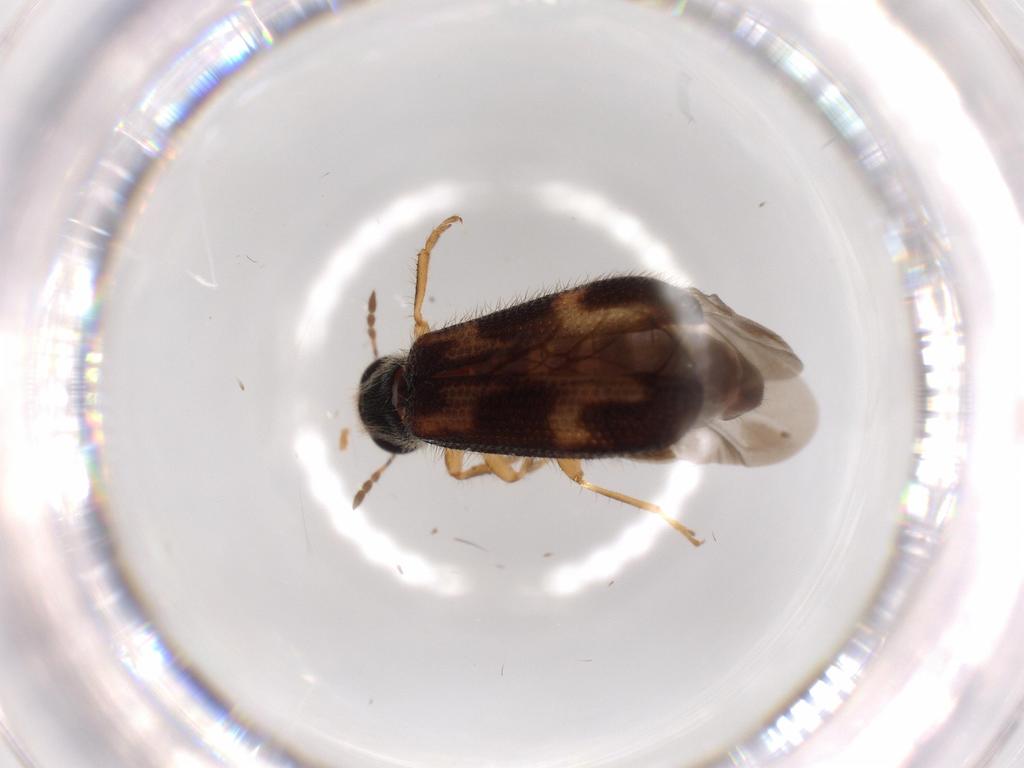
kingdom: Animalia
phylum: Arthropoda
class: Insecta
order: Coleoptera
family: Cleridae
